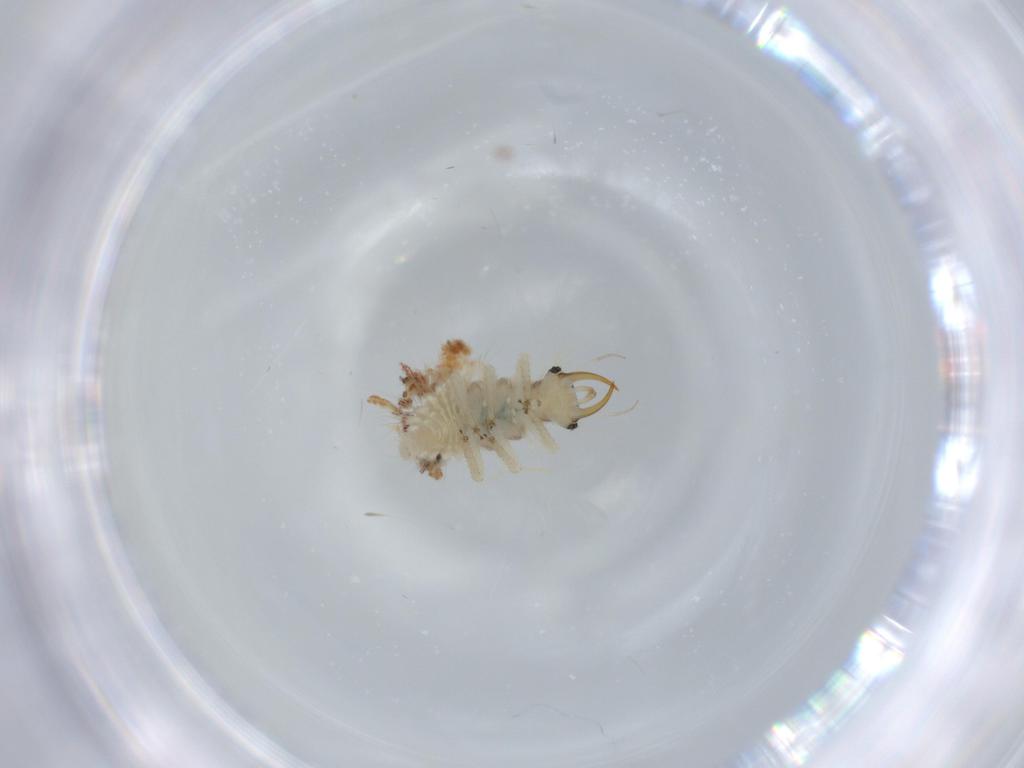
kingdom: Animalia
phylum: Arthropoda
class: Insecta
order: Neuroptera
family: Chrysopidae
